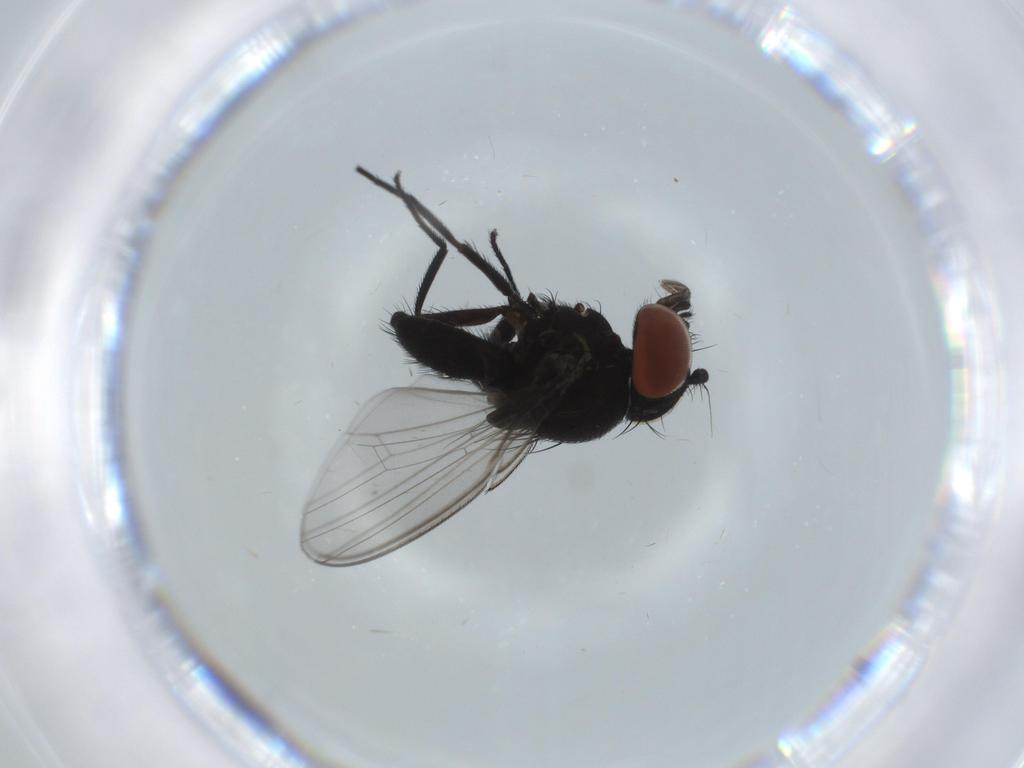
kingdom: Animalia
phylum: Arthropoda
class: Insecta
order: Diptera
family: Milichiidae
